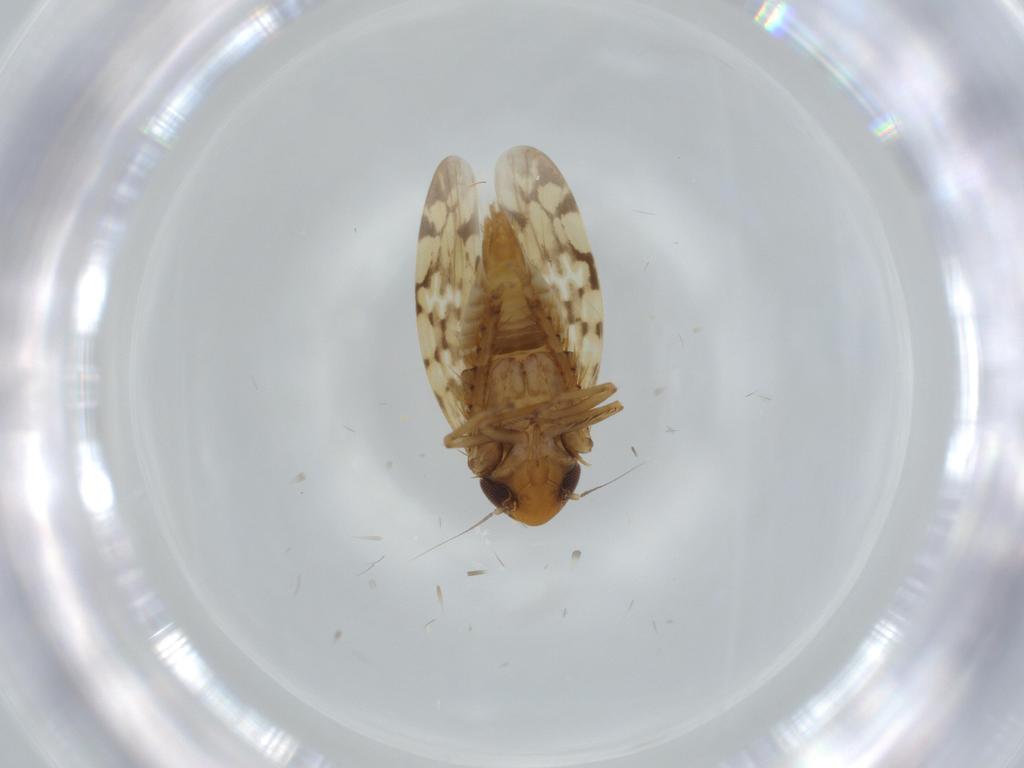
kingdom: Animalia
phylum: Arthropoda
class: Insecta
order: Hemiptera
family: Cicadellidae
